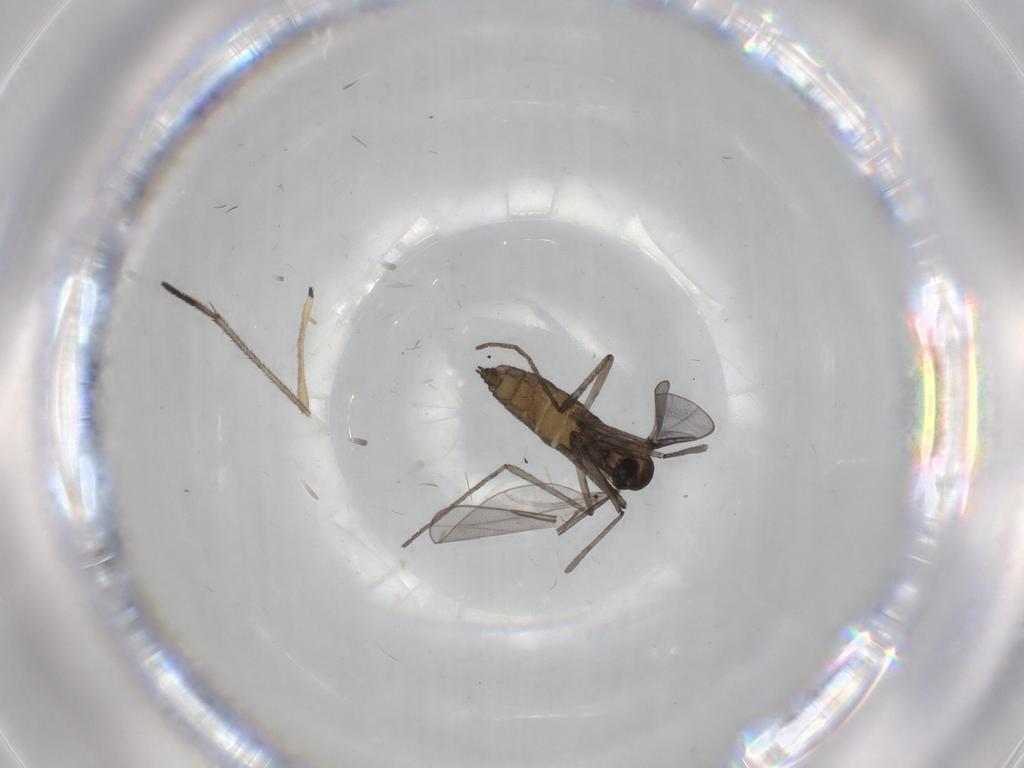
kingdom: Animalia
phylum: Arthropoda
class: Insecta
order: Diptera
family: Cecidomyiidae
